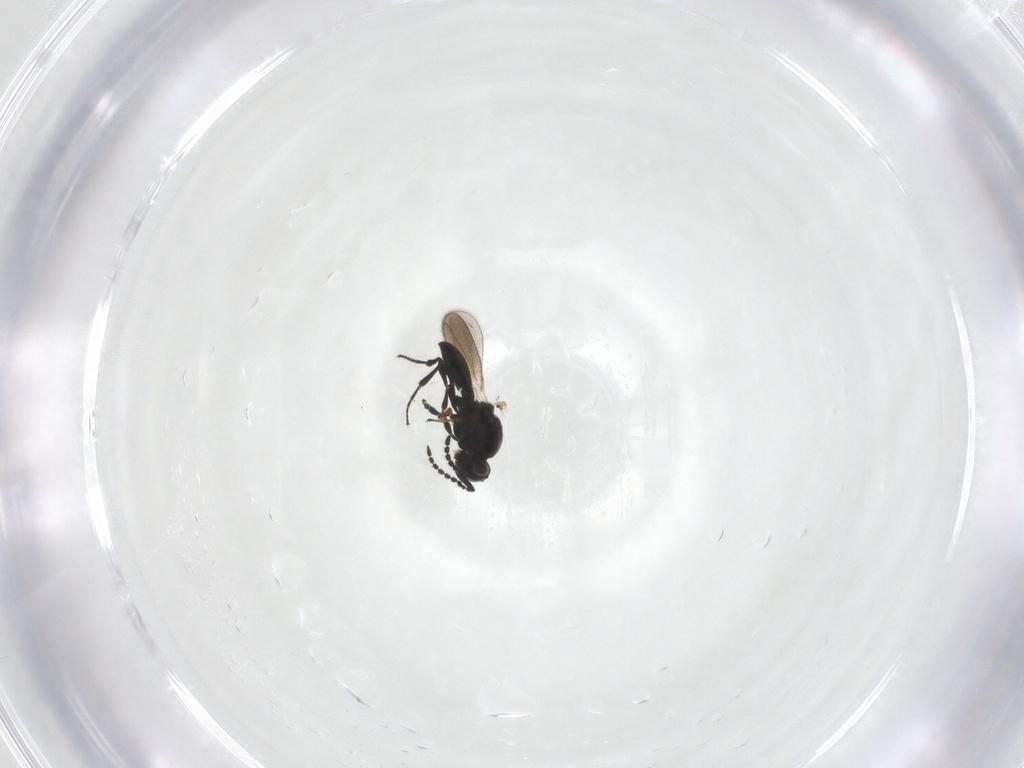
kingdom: Animalia
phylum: Arthropoda
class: Insecta
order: Hymenoptera
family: Platygastridae
